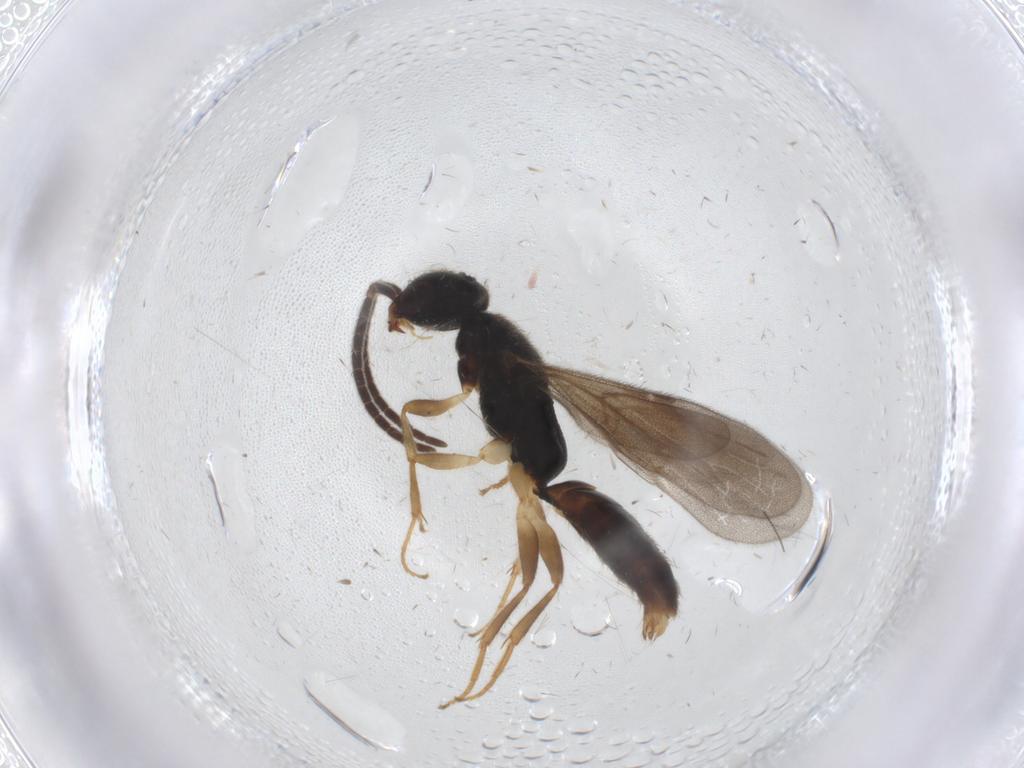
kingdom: Animalia
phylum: Arthropoda
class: Insecta
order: Hymenoptera
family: Bethylidae
